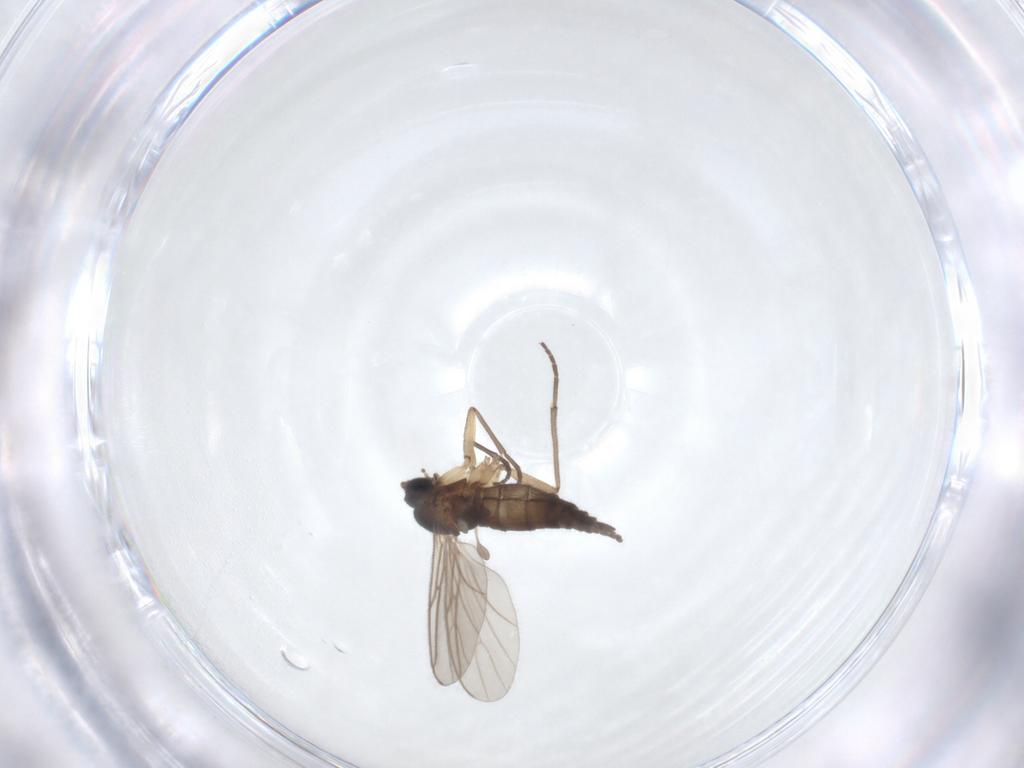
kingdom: Animalia
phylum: Arthropoda
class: Insecta
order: Diptera
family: Sciaridae
